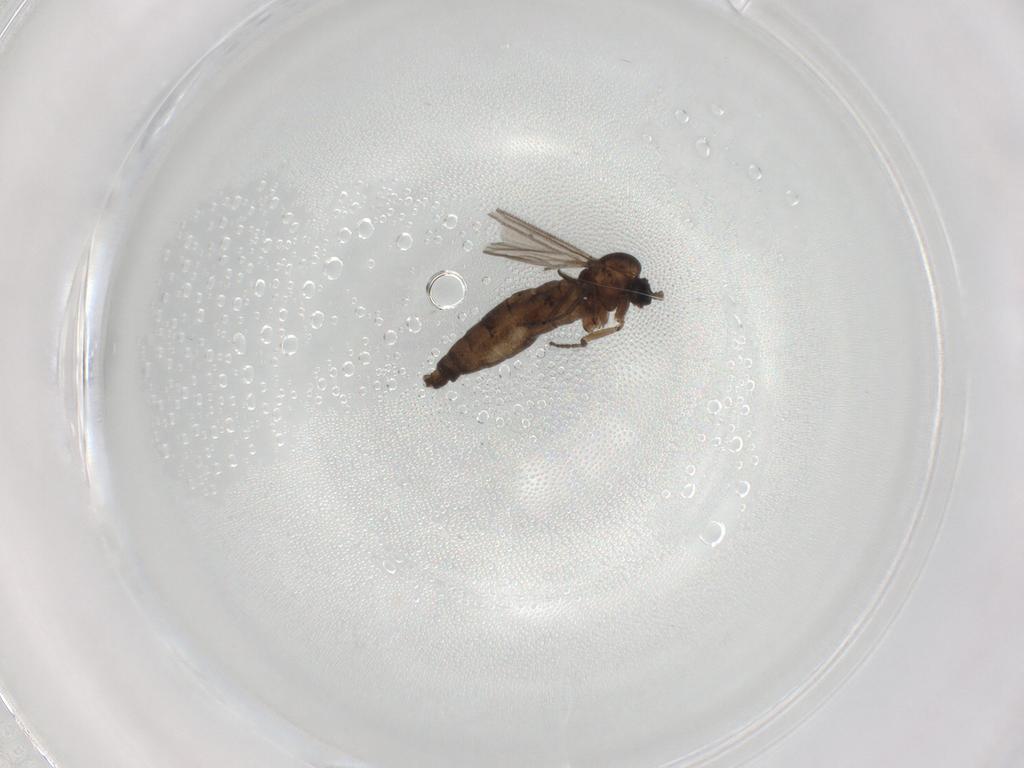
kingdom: Animalia
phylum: Arthropoda
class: Insecta
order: Diptera
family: Sciaridae
